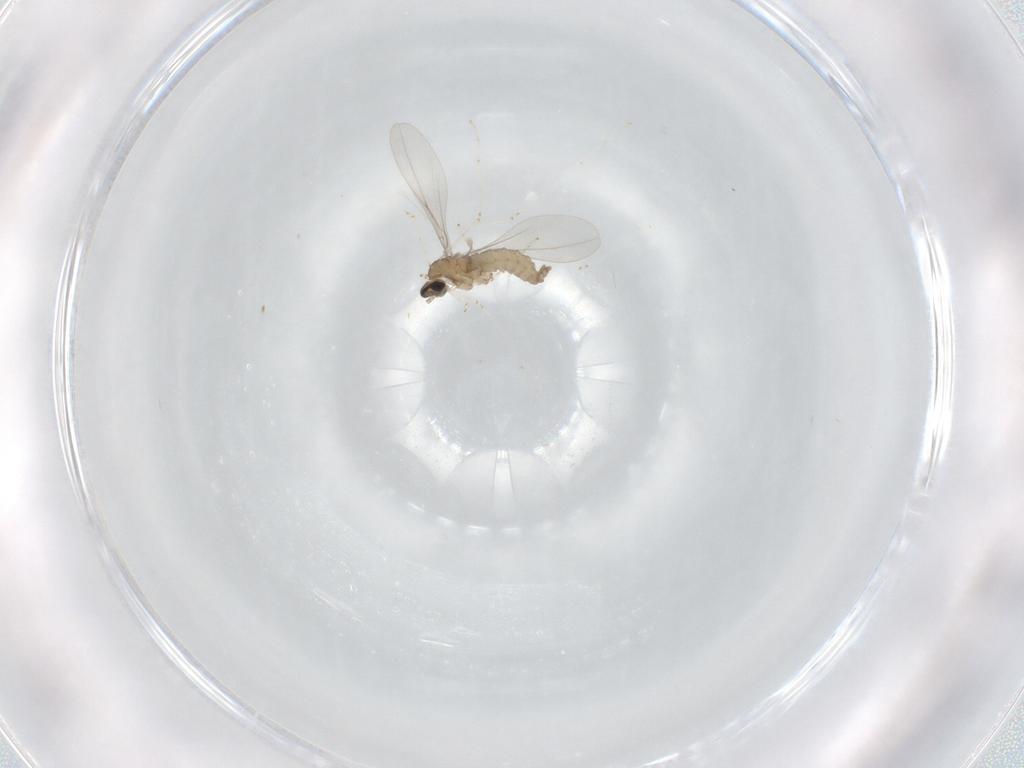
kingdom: Animalia
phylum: Arthropoda
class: Insecta
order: Diptera
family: Cecidomyiidae
